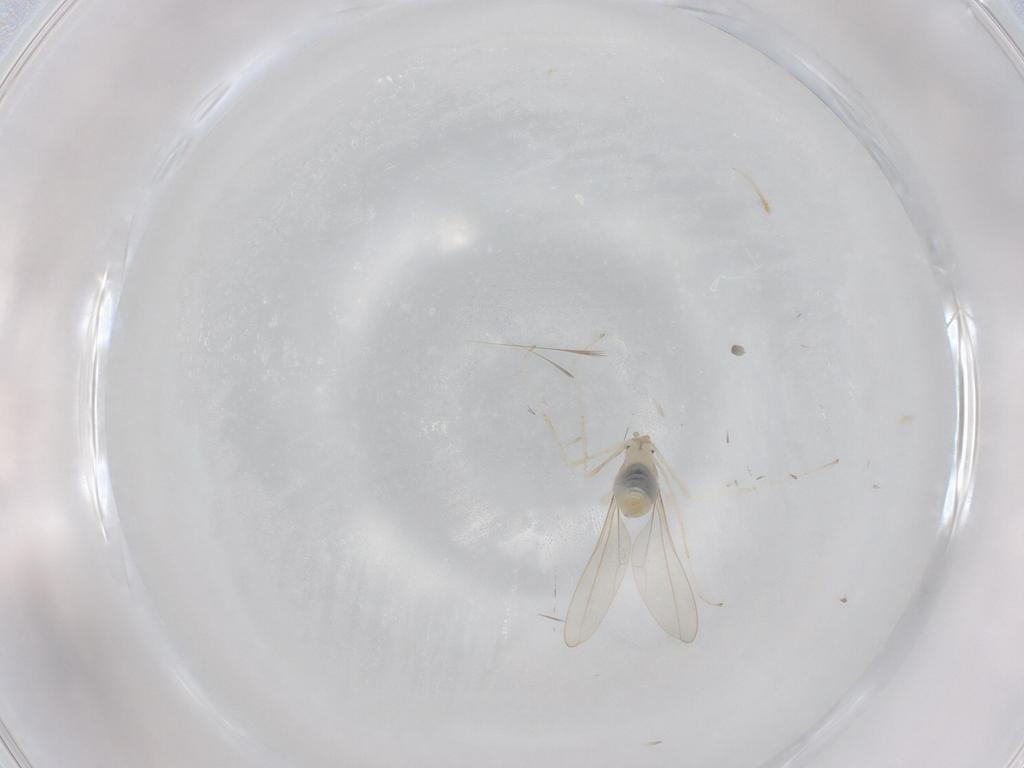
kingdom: Animalia
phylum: Arthropoda
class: Insecta
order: Diptera
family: Cecidomyiidae
